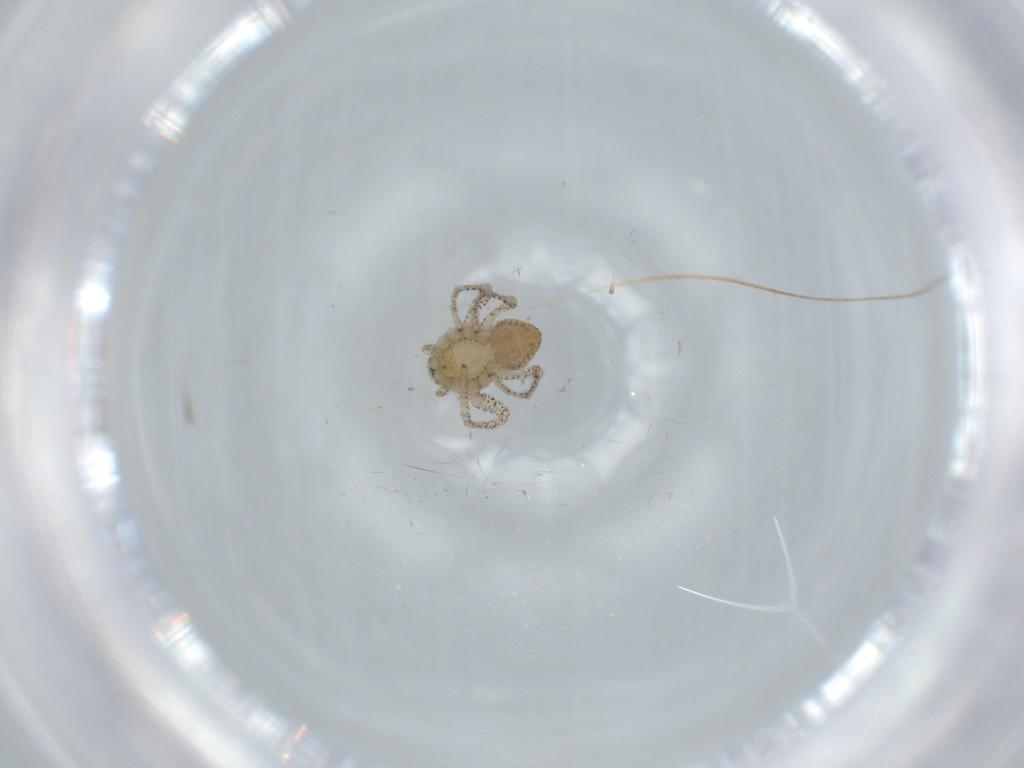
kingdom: Animalia
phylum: Arthropoda
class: Arachnida
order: Araneae
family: Philodromidae
